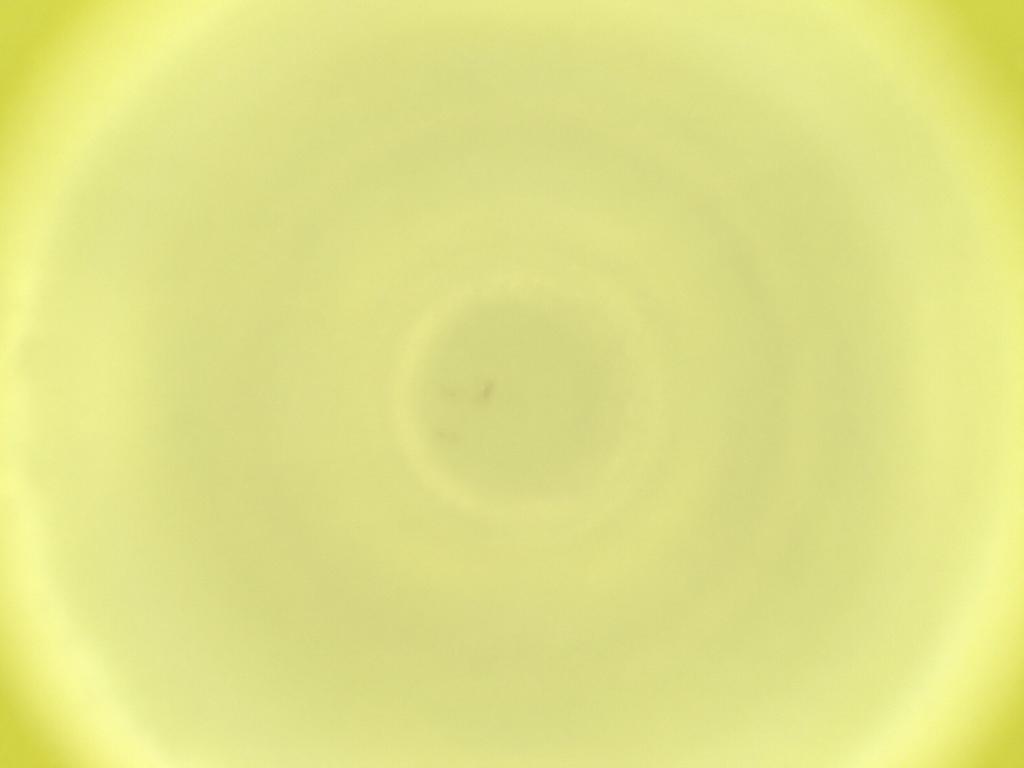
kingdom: Animalia
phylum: Arthropoda
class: Insecta
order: Diptera
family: Cecidomyiidae
